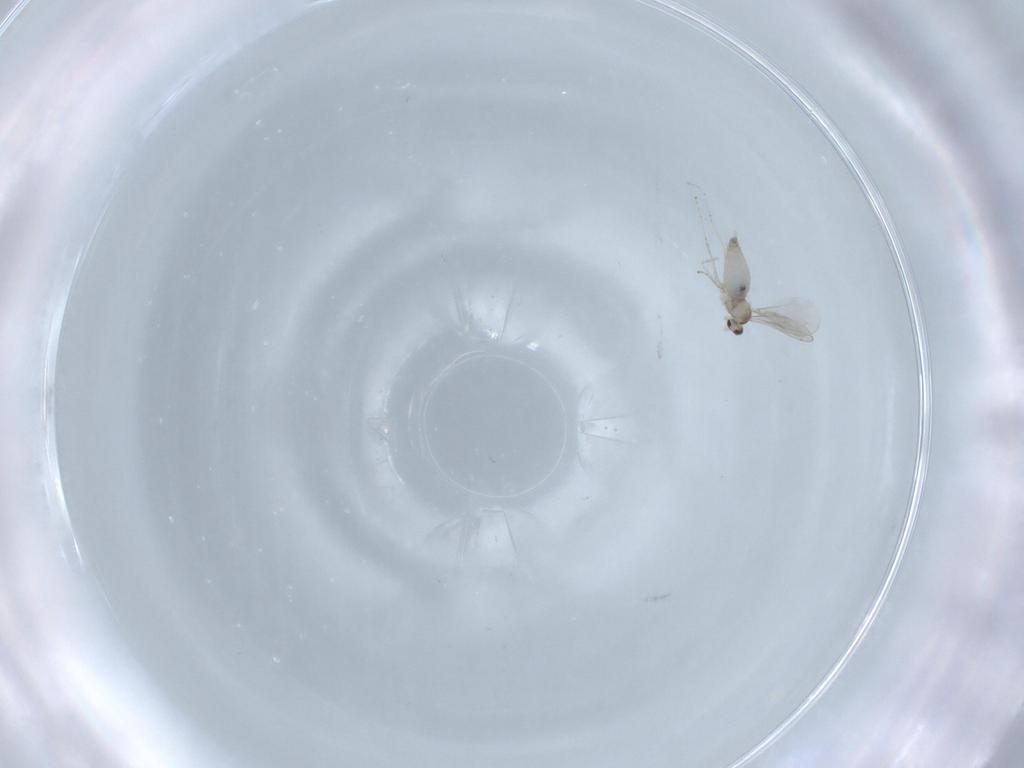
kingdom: Animalia
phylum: Arthropoda
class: Insecta
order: Diptera
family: Cecidomyiidae
